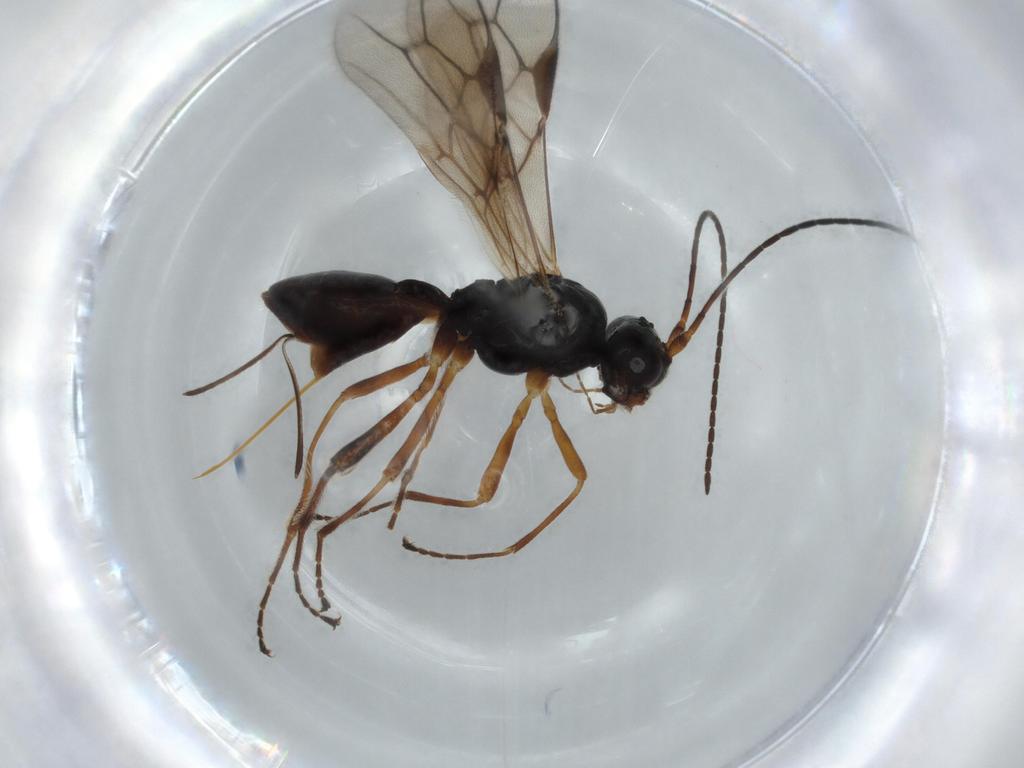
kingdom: Animalia
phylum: Arthropoda
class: Insecta
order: Hymenoptera
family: Braconidae
